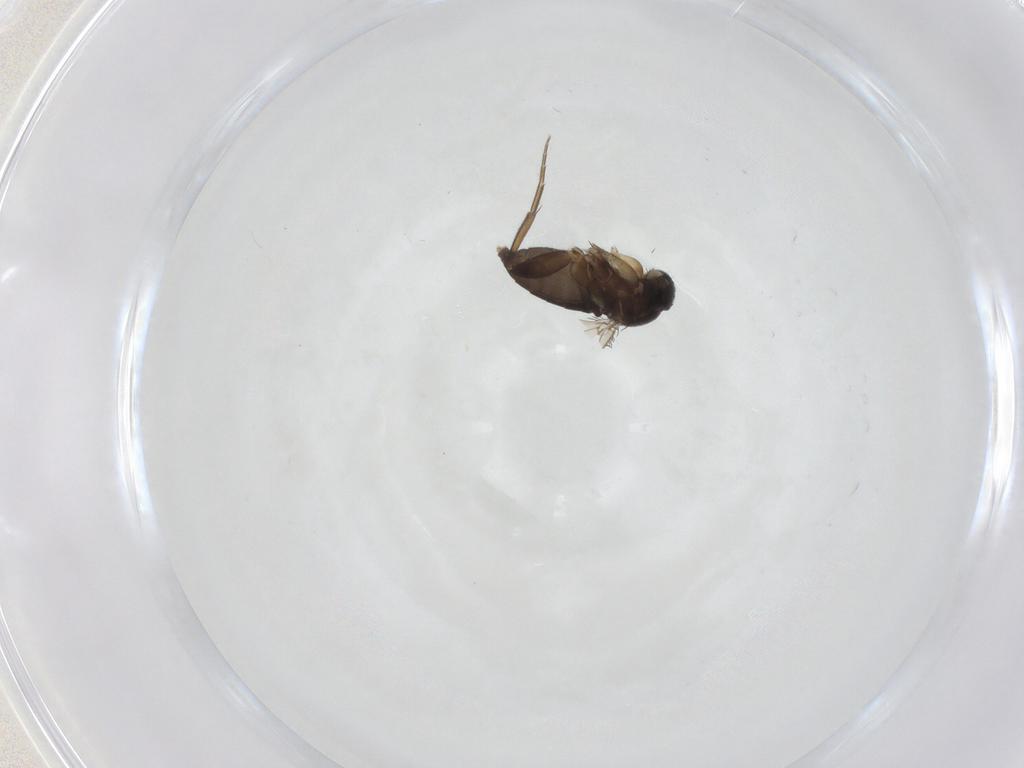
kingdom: Animalia
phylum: Arthropoda
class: Insecta
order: Diptera
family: Phoridae
